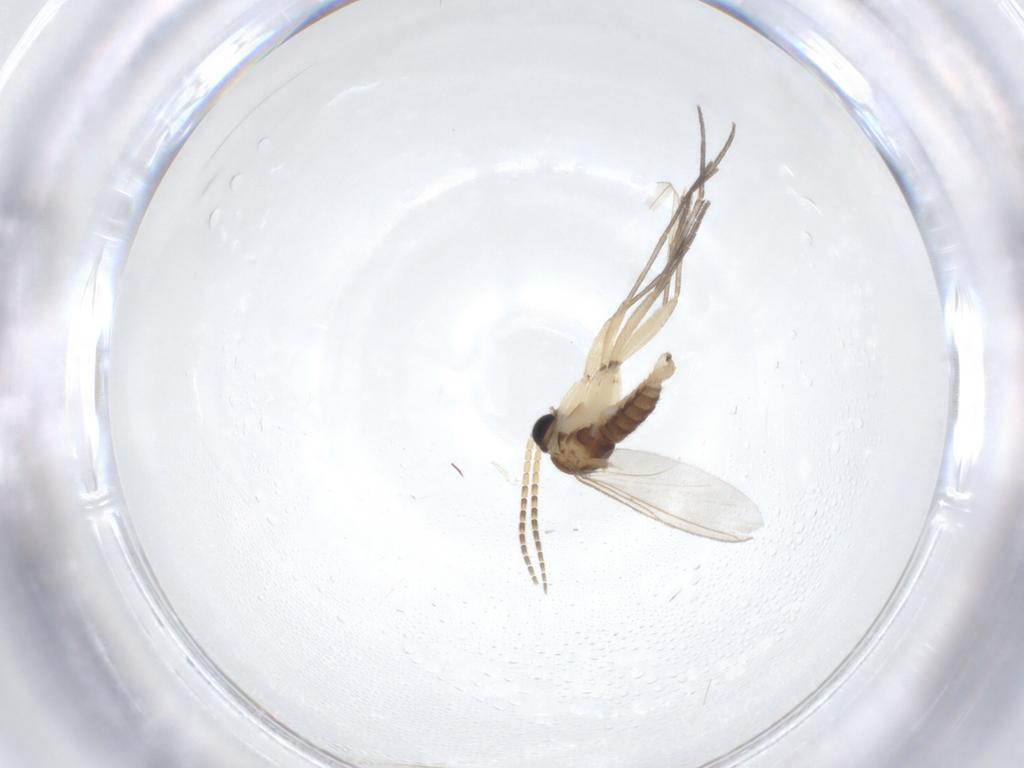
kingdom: Animalia
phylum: Arthropoda
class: Insecta
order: Diptera
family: Psychodidae
